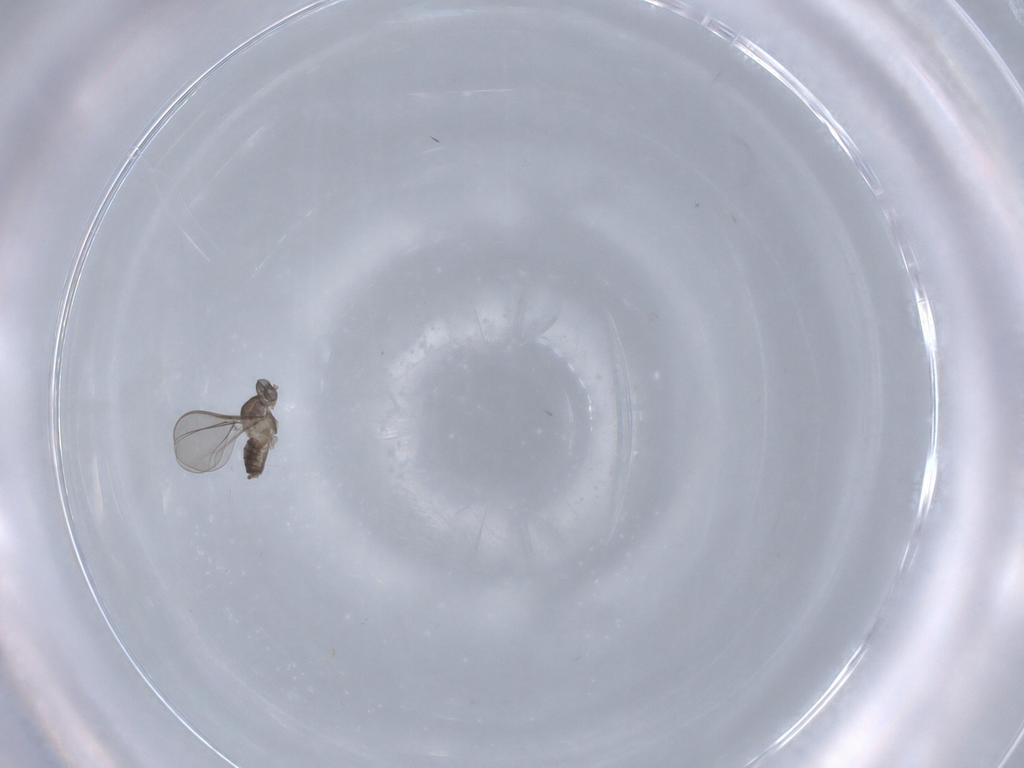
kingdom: Animalia
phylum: Arthropoda
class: Insecta
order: Diptera
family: Cecidomyiidae
